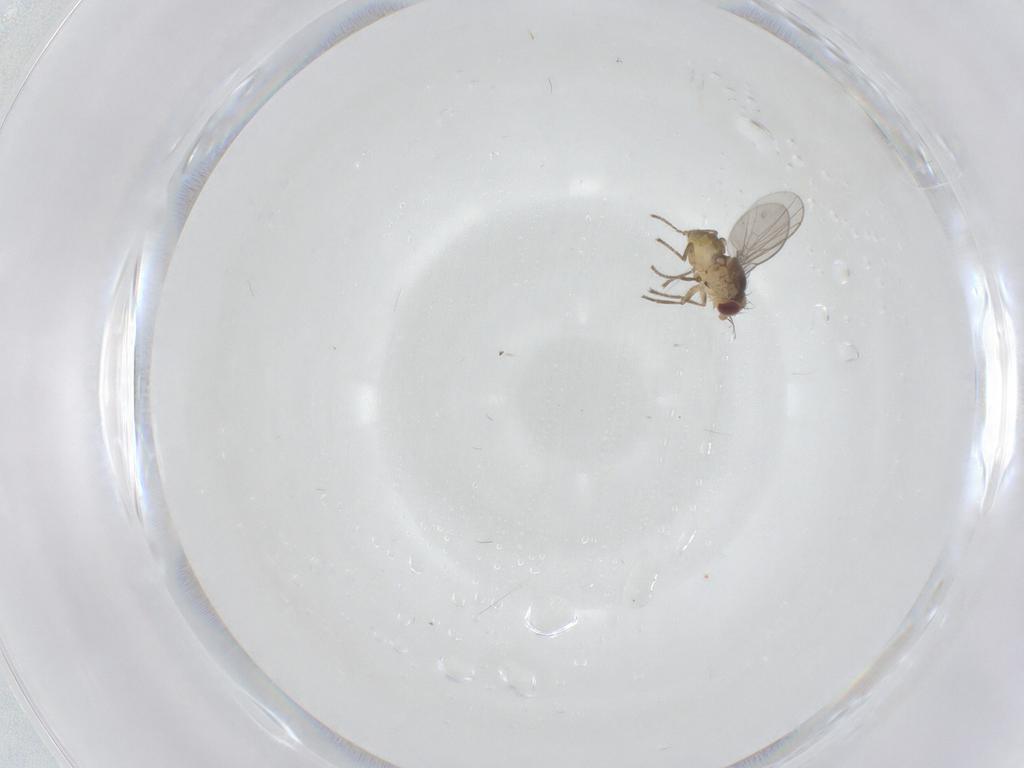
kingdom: Animalia
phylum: Arthropoda
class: Insecta
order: Diptera
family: Agromyzidae
